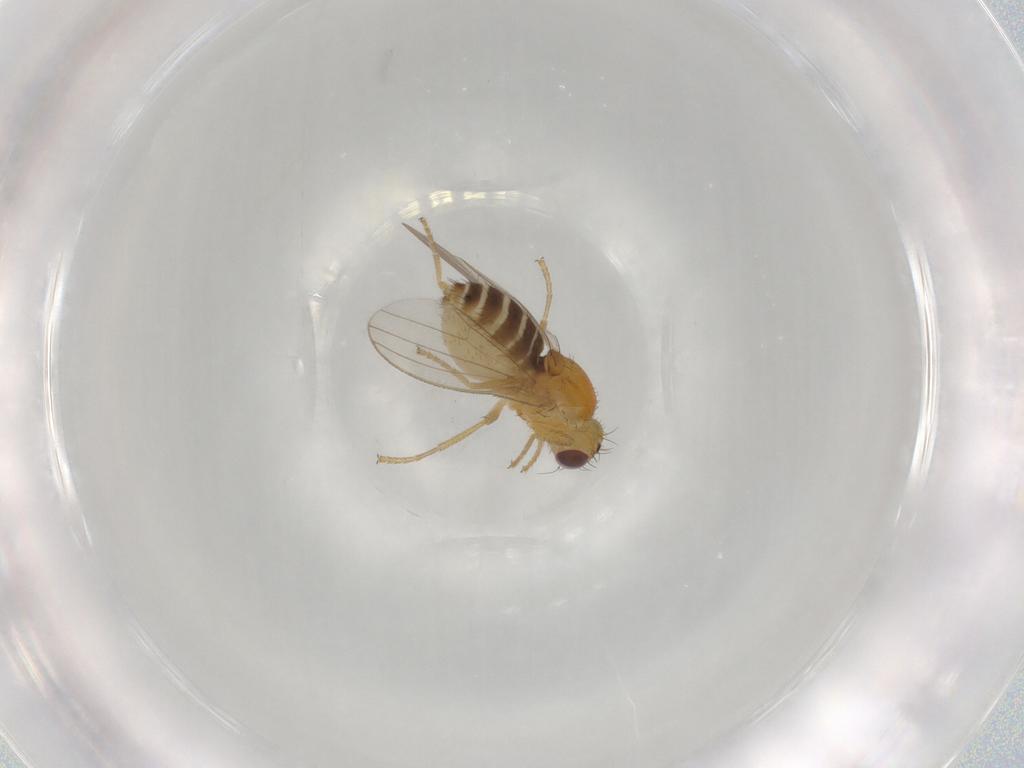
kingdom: Animalia
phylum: Arthropoda
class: Insecta
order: Diptera
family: Chyromyidae
